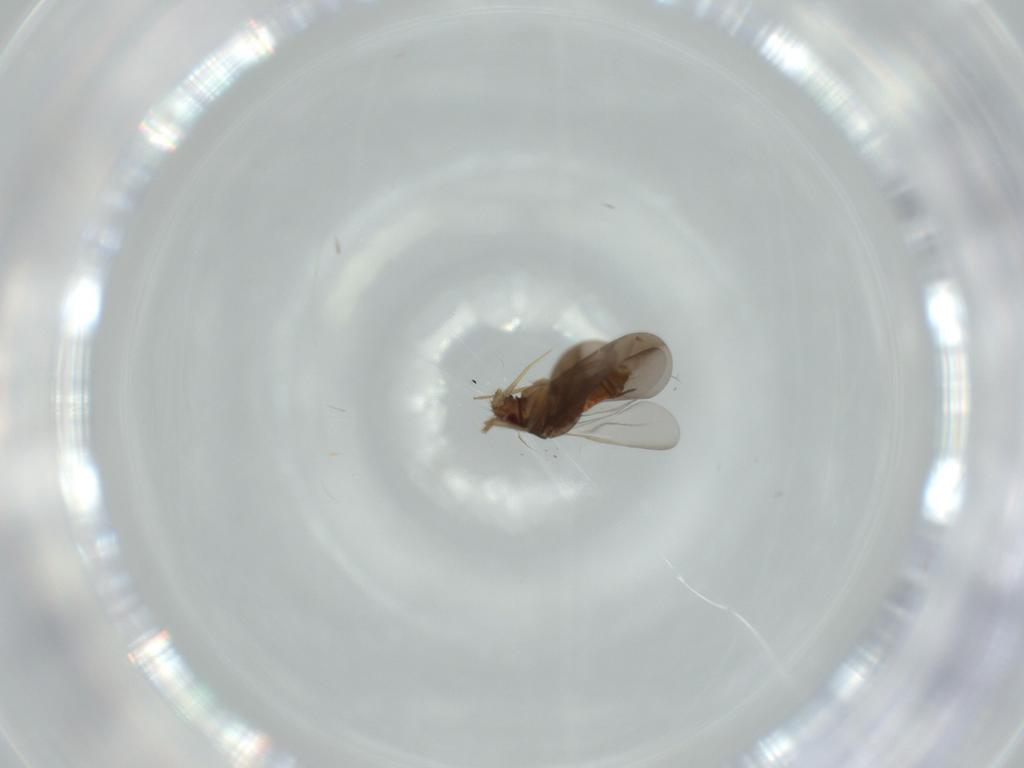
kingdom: Animalia
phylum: Arthropoda
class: Insecta
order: Hemiptera
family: Ceratocombidae
